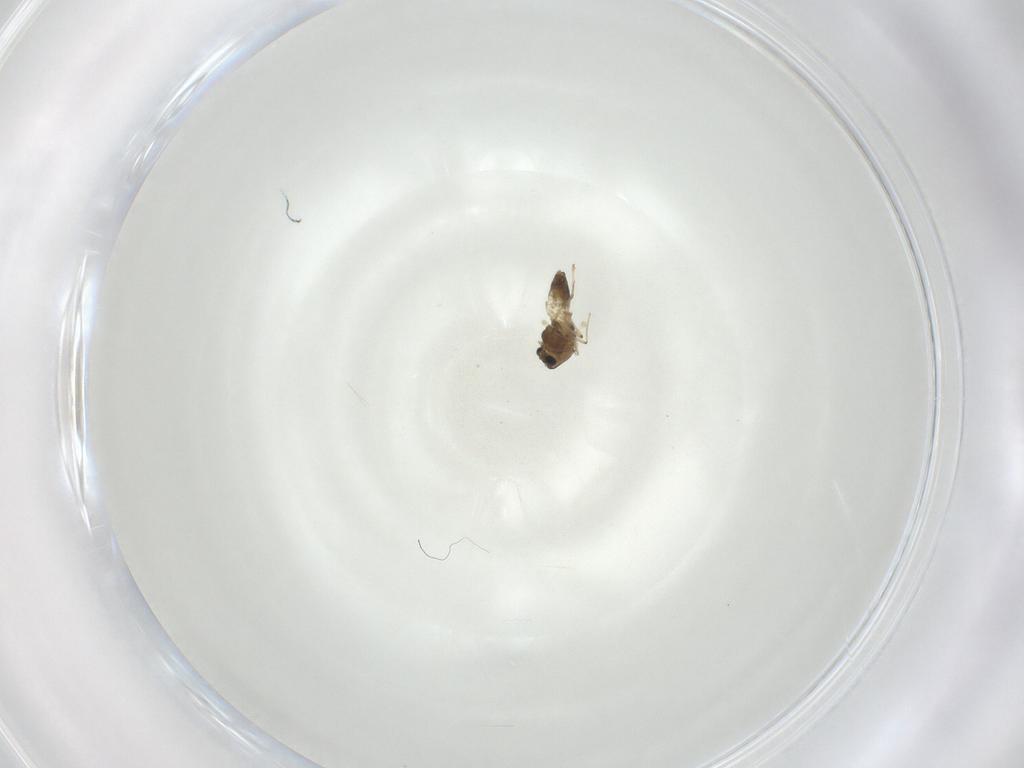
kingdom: Animalia
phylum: Arthropoda
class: Insecta
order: Diptera
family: Chironomidae
